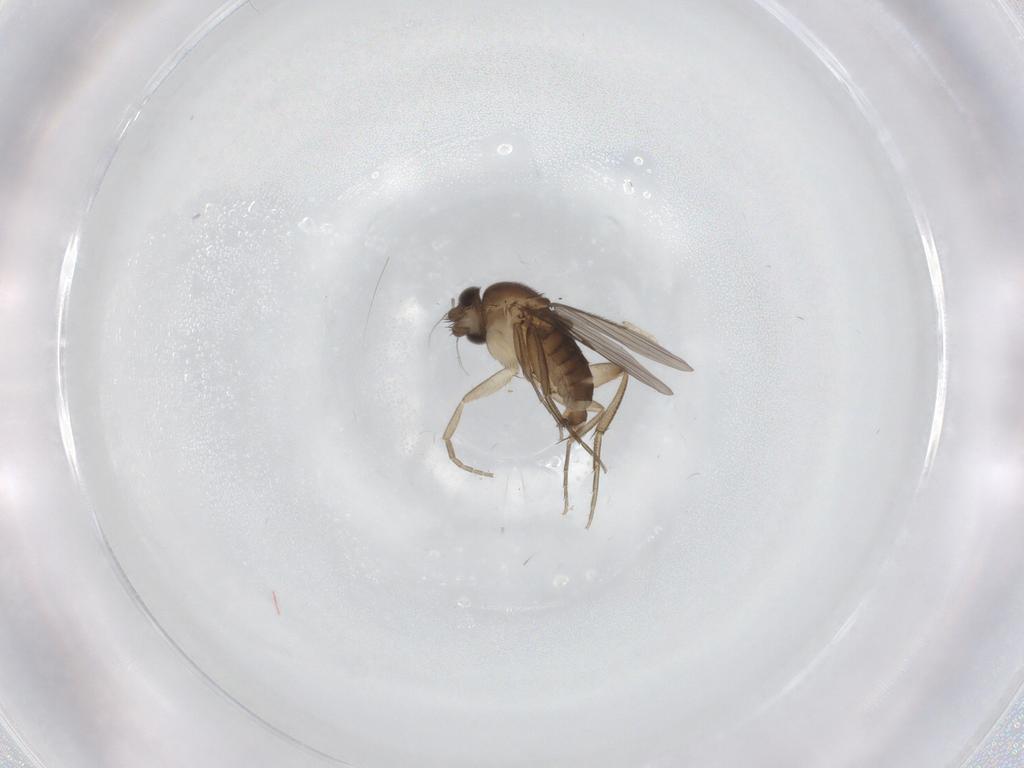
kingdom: Animalia
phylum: Arthropoda
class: Insecta
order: Diptera
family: Phoridae
